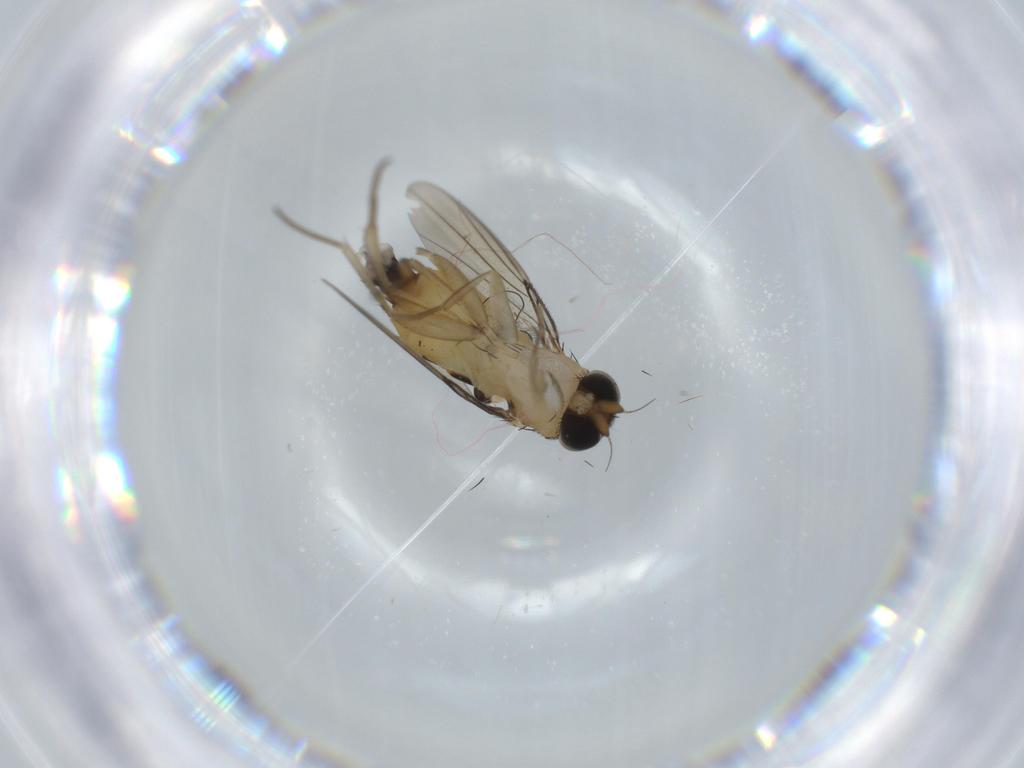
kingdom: Animalia
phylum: Arthropoda
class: Insecta
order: Diptera
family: Phoridae
